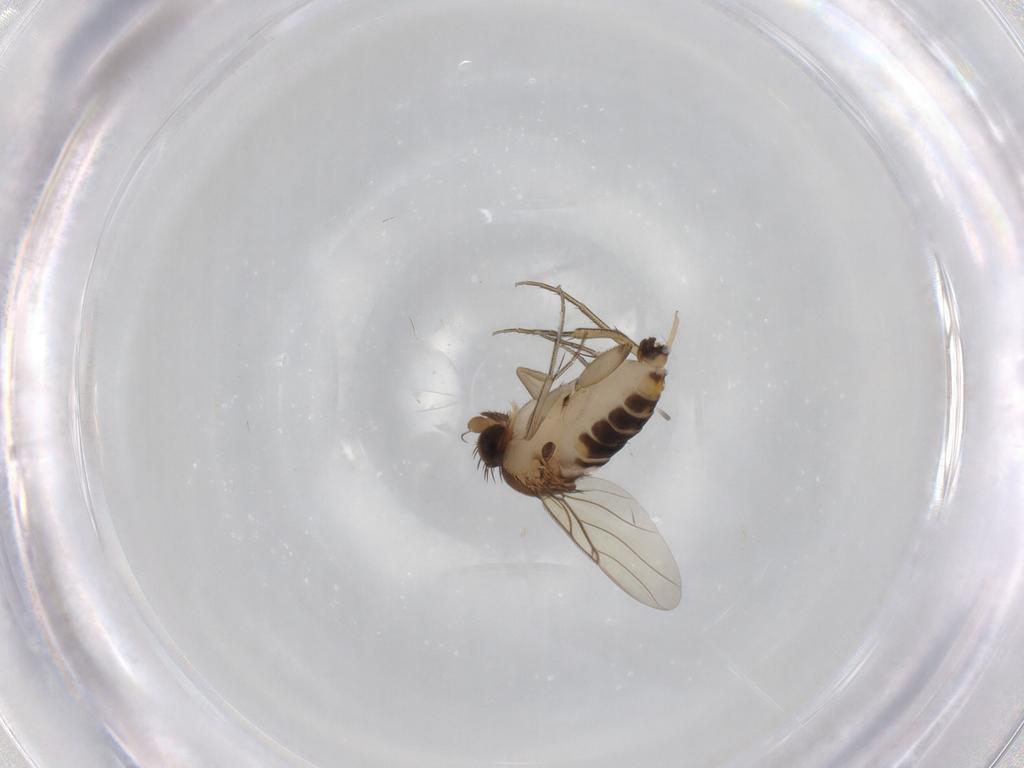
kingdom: Animalia
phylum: Arthropoda
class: Insecta
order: Diptera
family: Phoridae
